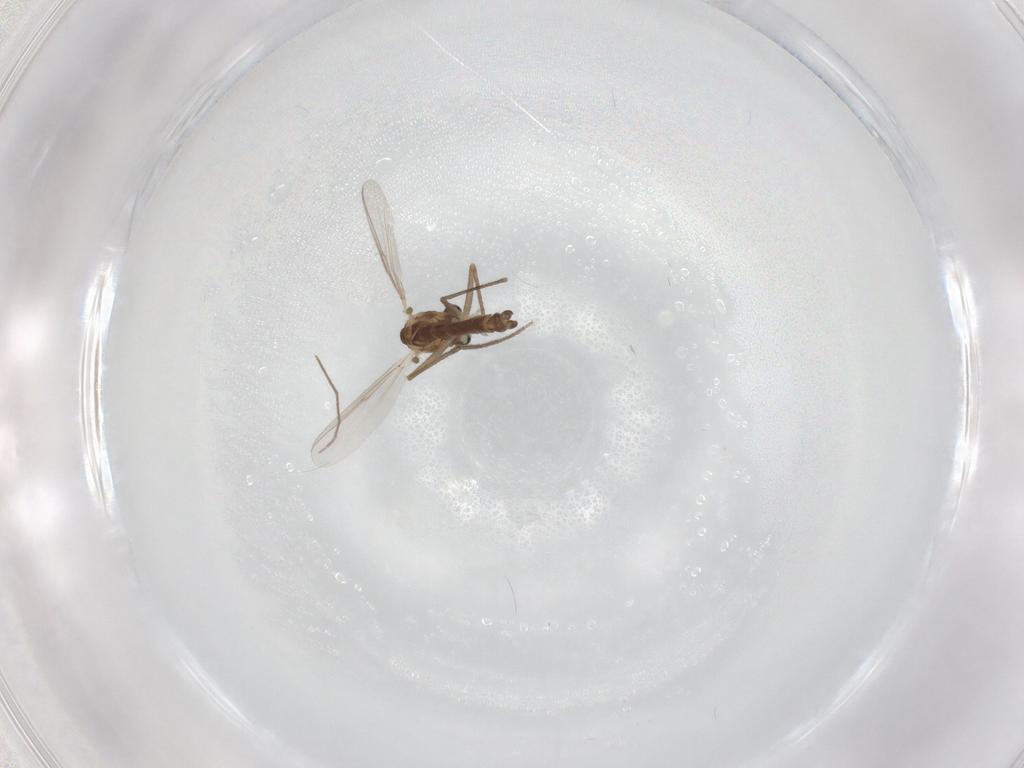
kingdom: Animalia
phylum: Arthropoda
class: Insecta
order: Diptera
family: Chironomidae
